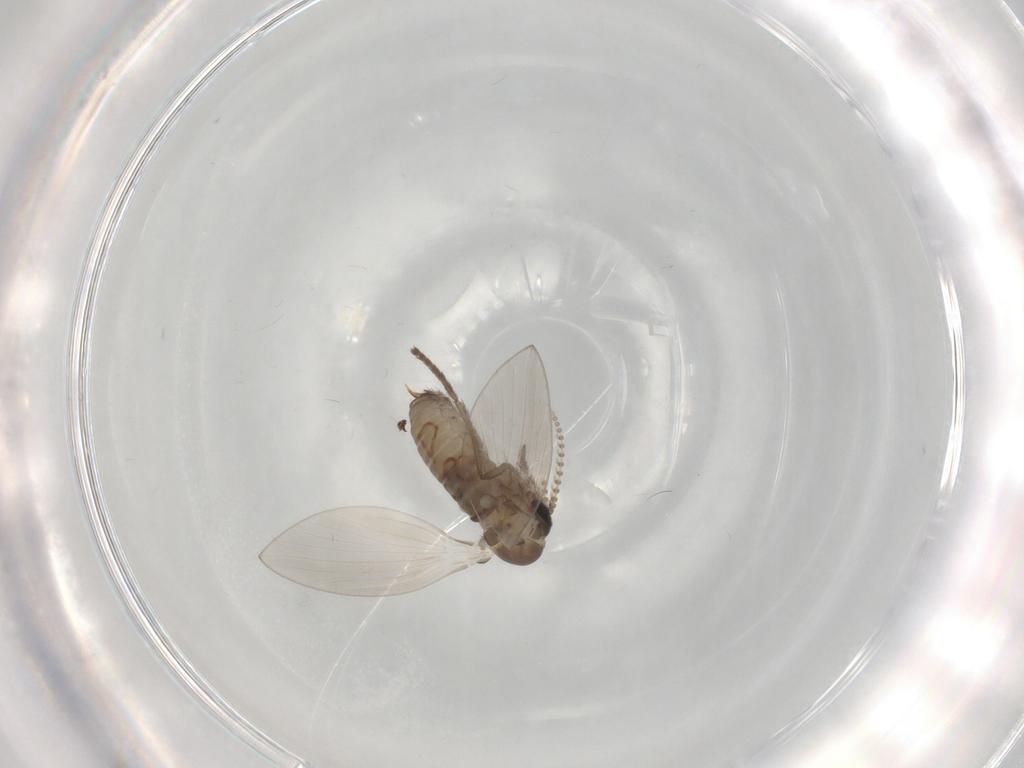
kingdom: Animalia
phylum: Arthropoda
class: Insecta
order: Diptera
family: Psychodidae
